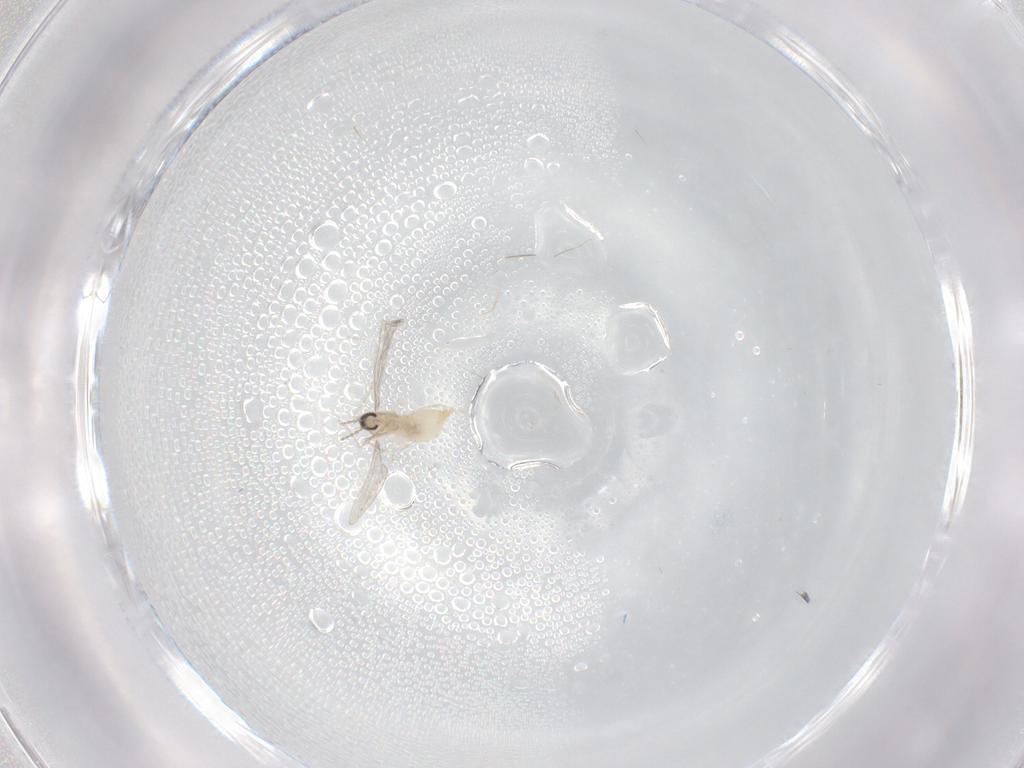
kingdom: Animalia
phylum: Arthropoda
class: Insecta
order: Diptera
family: Cecidomyiidae
